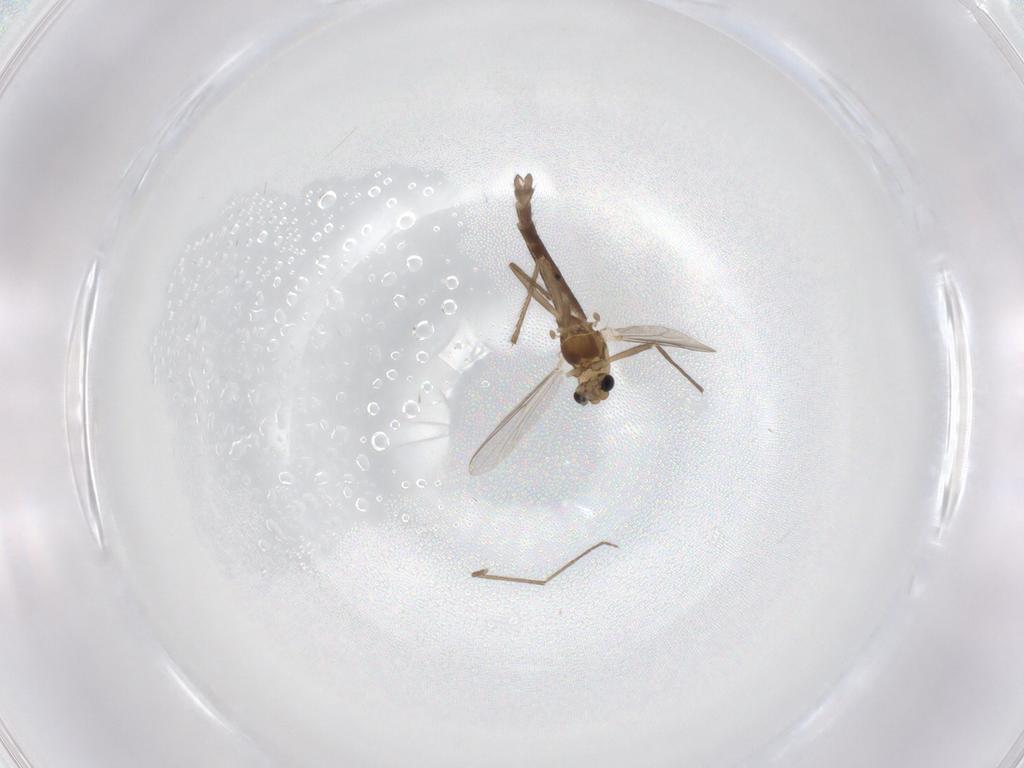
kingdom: Animalia
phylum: Arthropoda
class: Insecta
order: Diptera
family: Chironomidae
